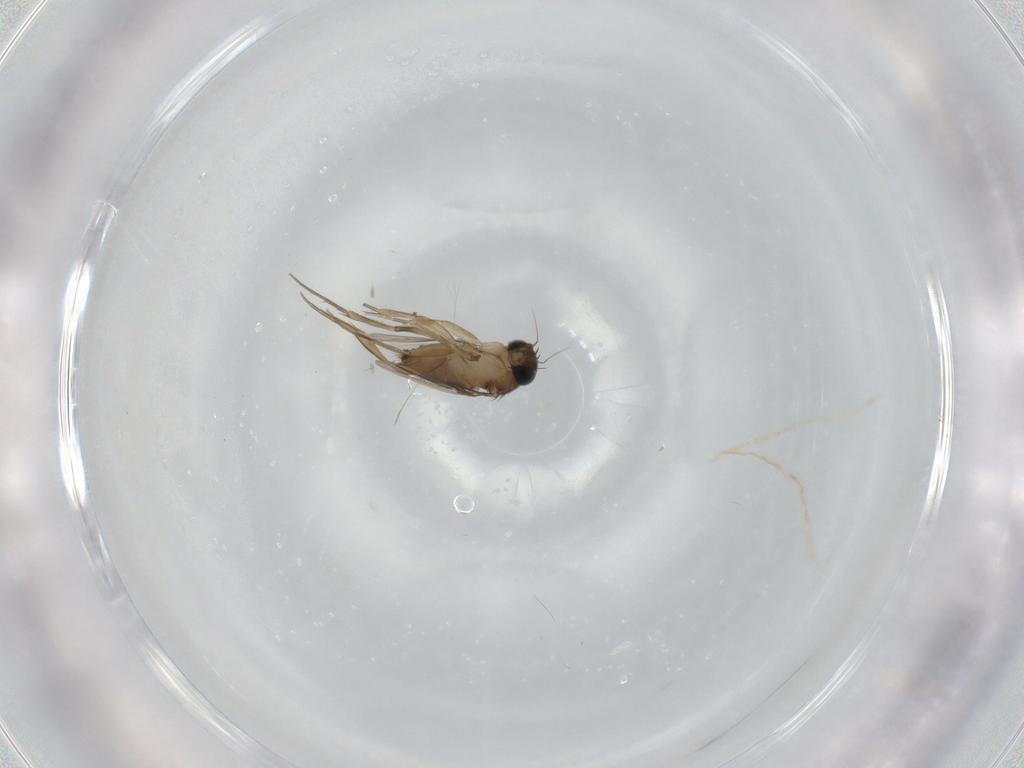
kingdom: Animalia
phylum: Arthropoda
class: Insecta
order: Diptera
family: Phoridae
